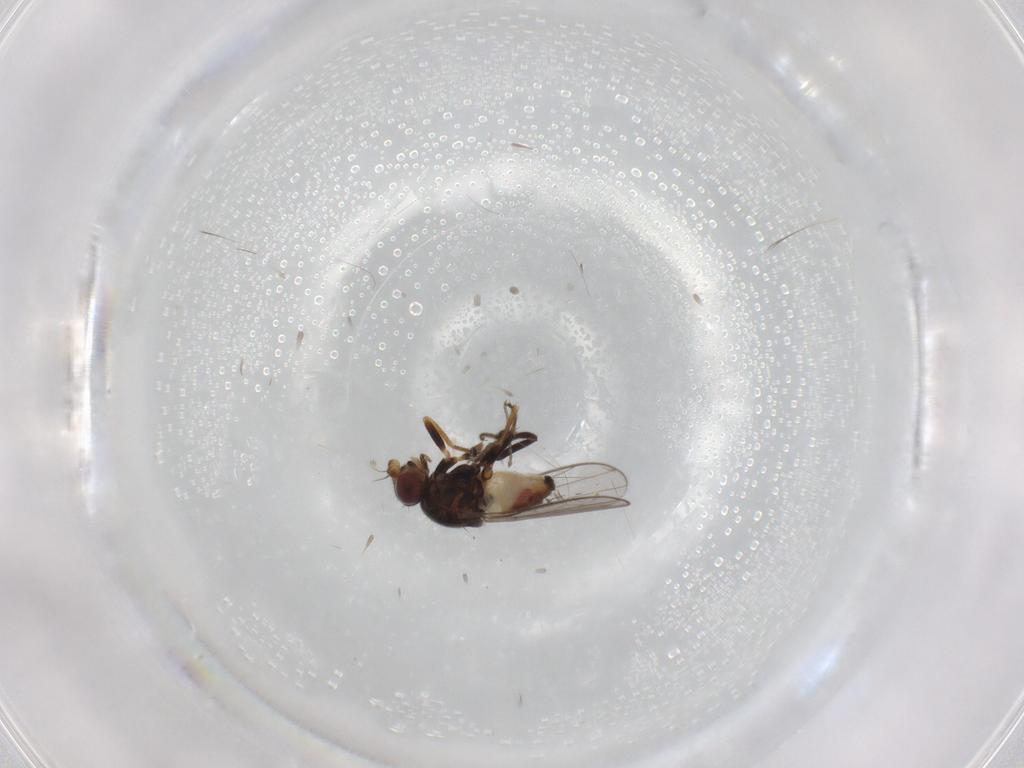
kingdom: Animalia
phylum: Arthropoda
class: Insecta
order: Diptera
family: Chloropidae
